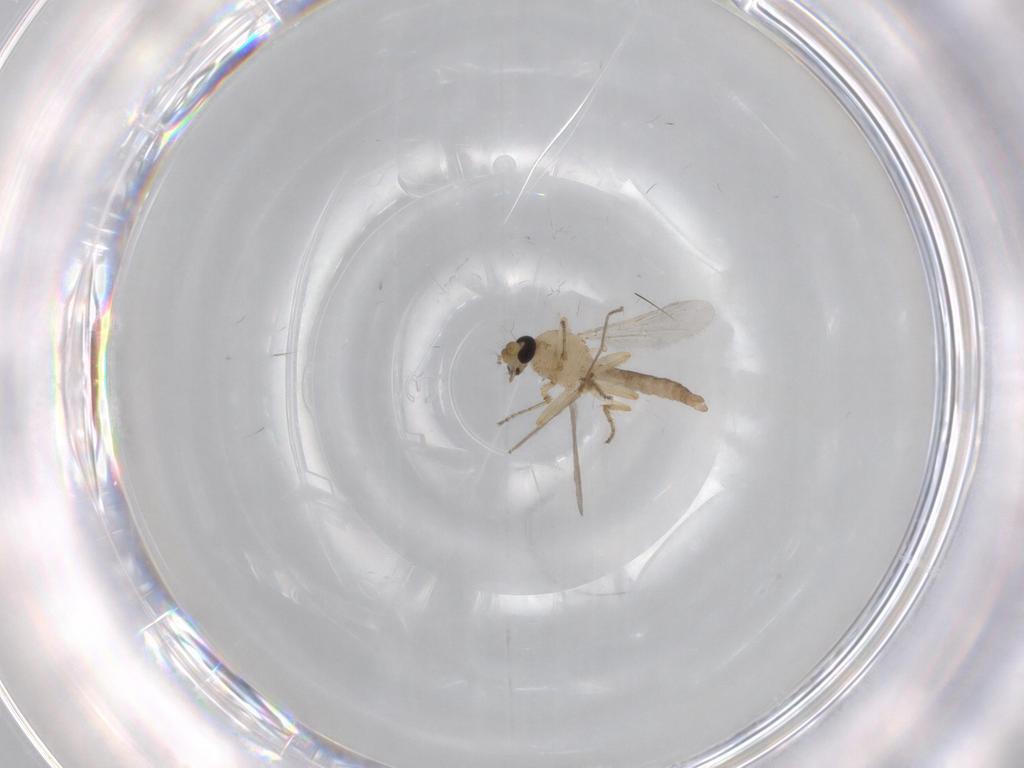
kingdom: Animalia
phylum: Arthropoda
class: Insecta
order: Diptera
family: Ceratopogonidae
